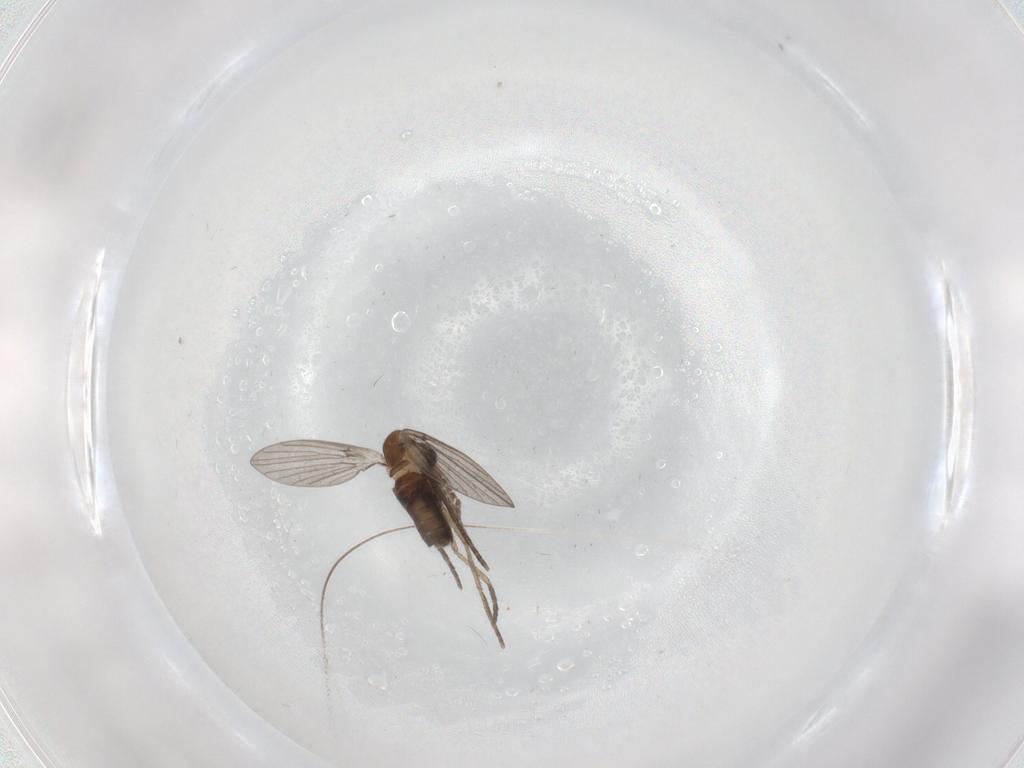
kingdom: Animalia
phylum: Arthropoda
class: Insecta
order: Diptera
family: Psychodidae
